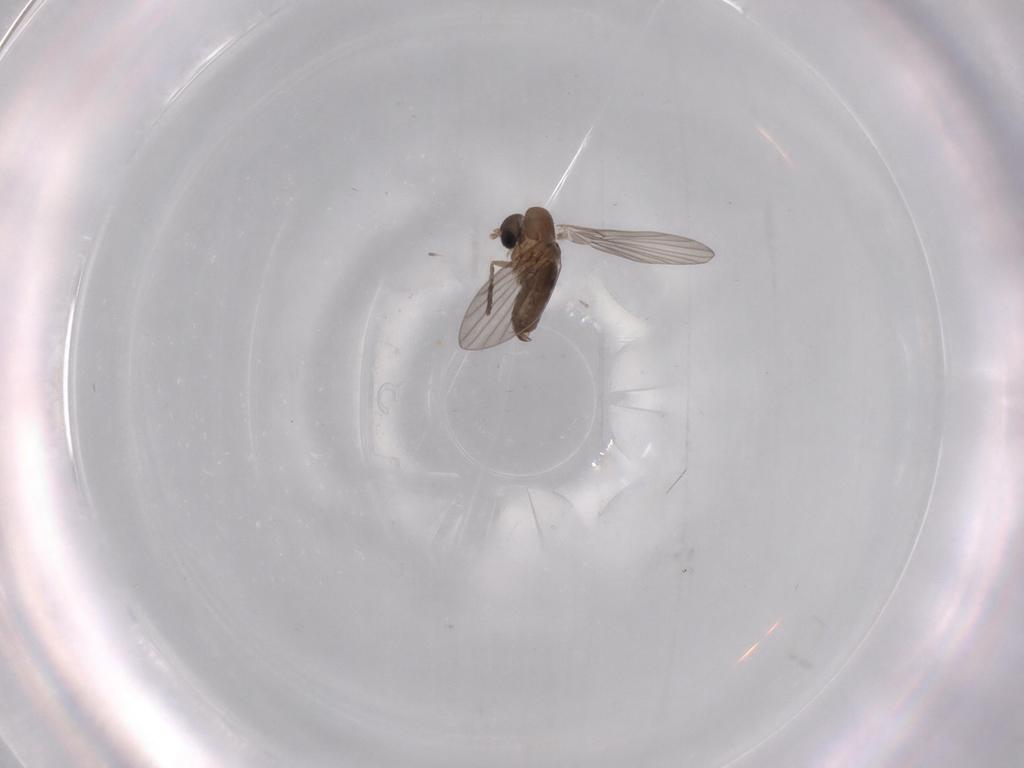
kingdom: Animalia
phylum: Arthropoda
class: Insecta
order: Diptera
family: Psychodidae
